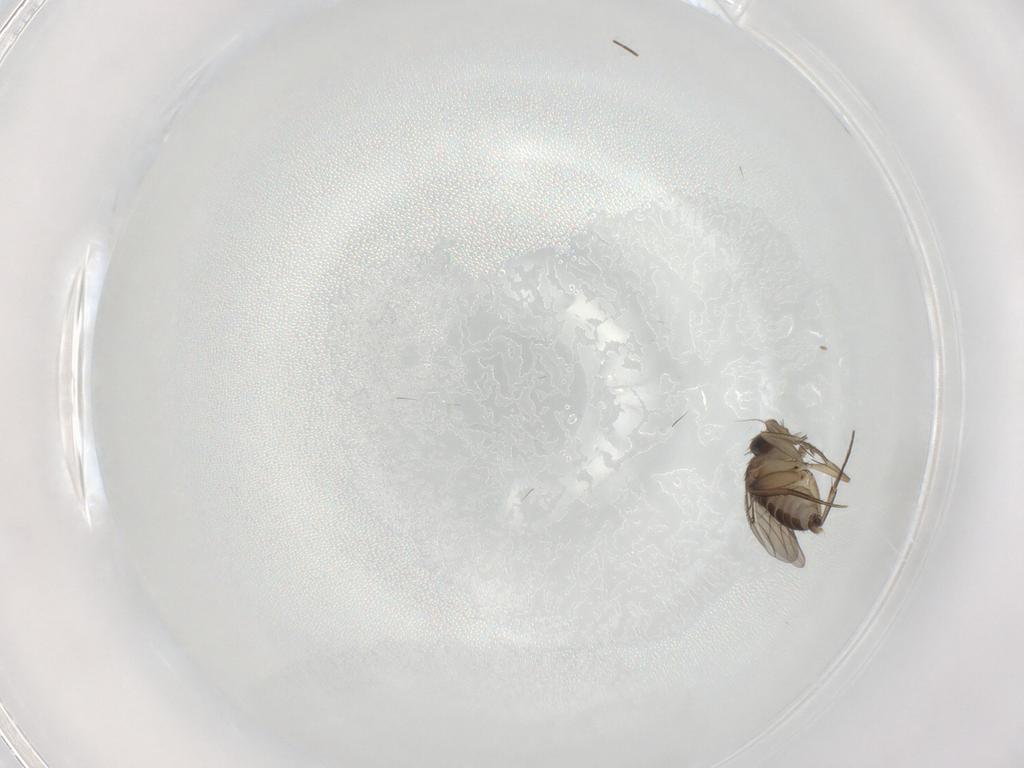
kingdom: Animalia
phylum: Arthropoda
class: Insecta
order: Diptera
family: Phoridae
